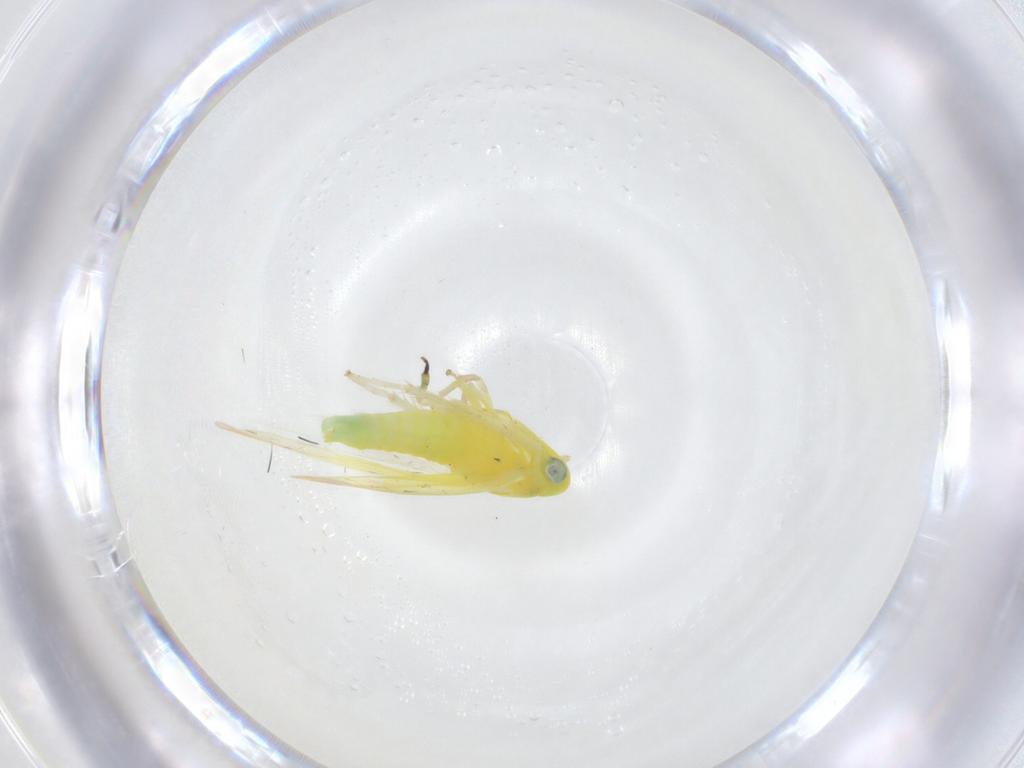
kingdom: Animalia
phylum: Arthropoda
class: Insecta
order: Hemiptera
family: Cicadellidae
